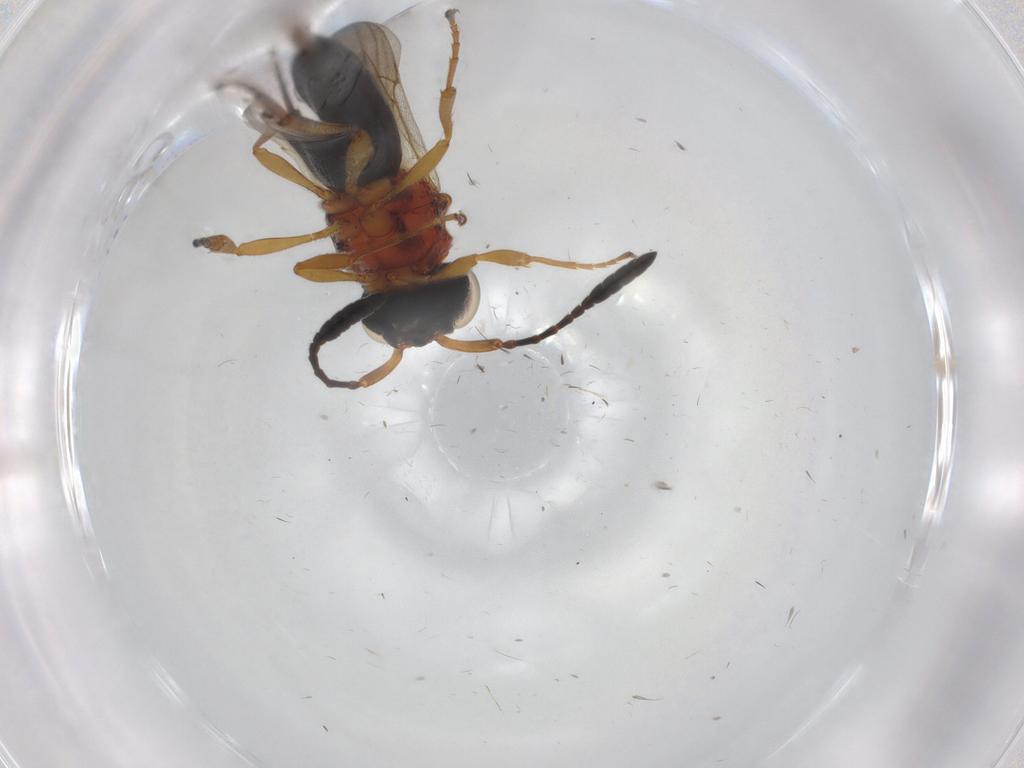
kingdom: Animalia
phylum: Arthropoda
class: Insecta
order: Hymenoptera
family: Scelionidae
